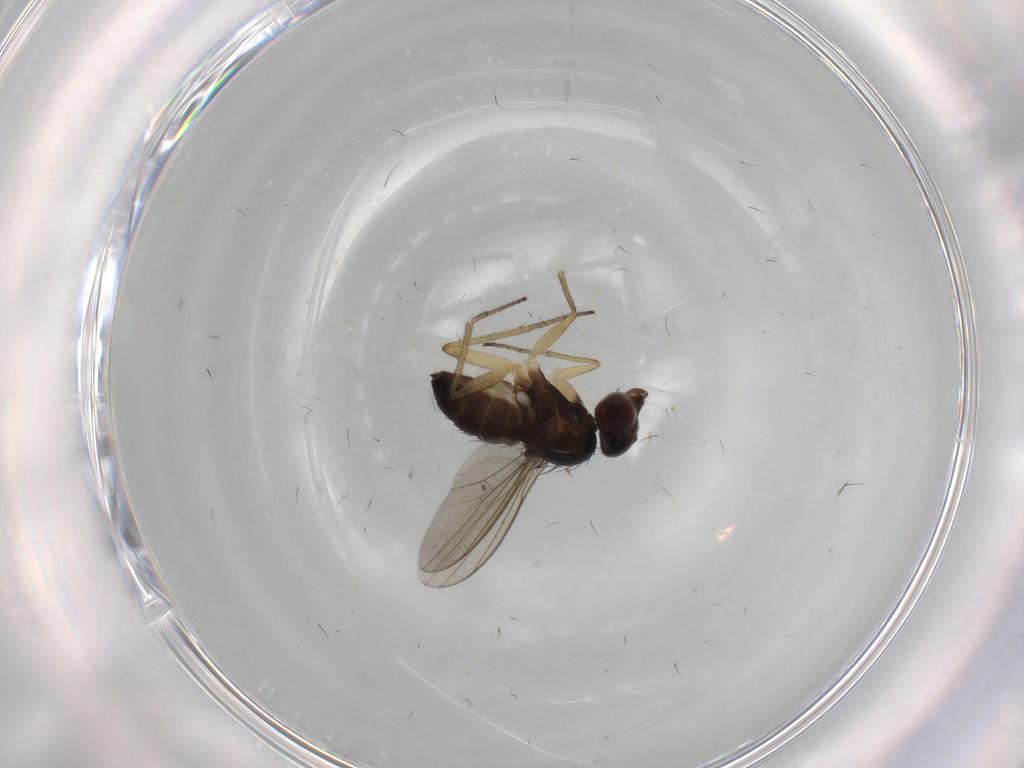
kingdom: Animalia
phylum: Arthropoda
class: Insecta
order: Diptera
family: Dolichopodidae
